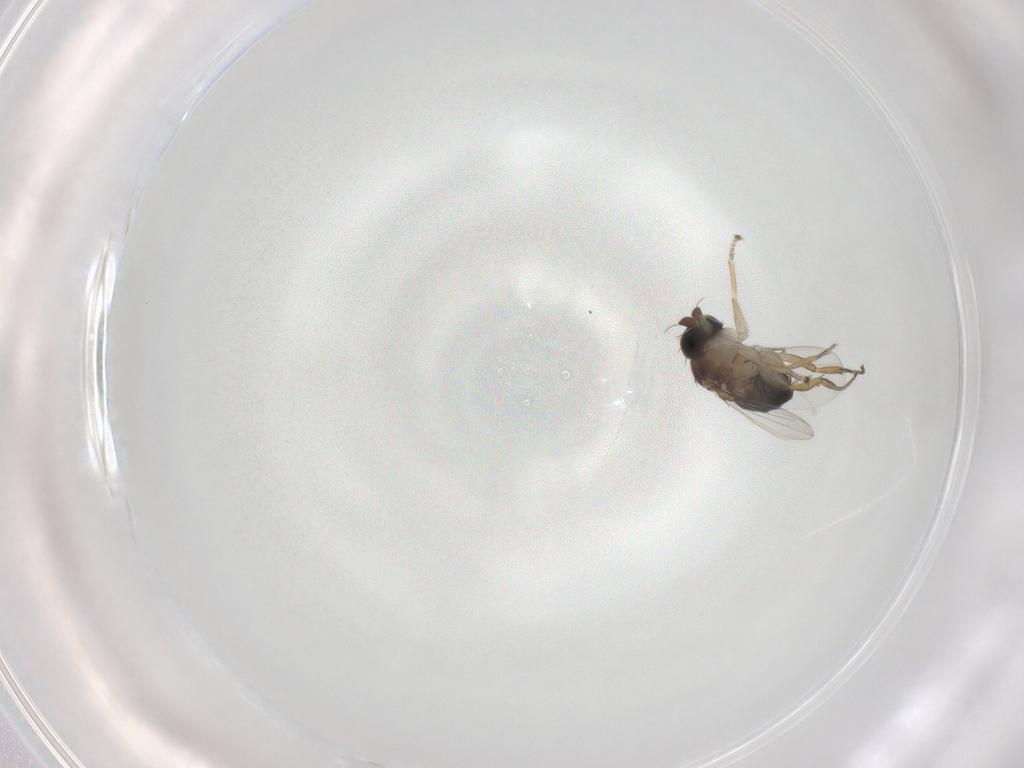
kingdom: Animalia
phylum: Arthropoda
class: Insecta
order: Diptera
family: Phoridae
